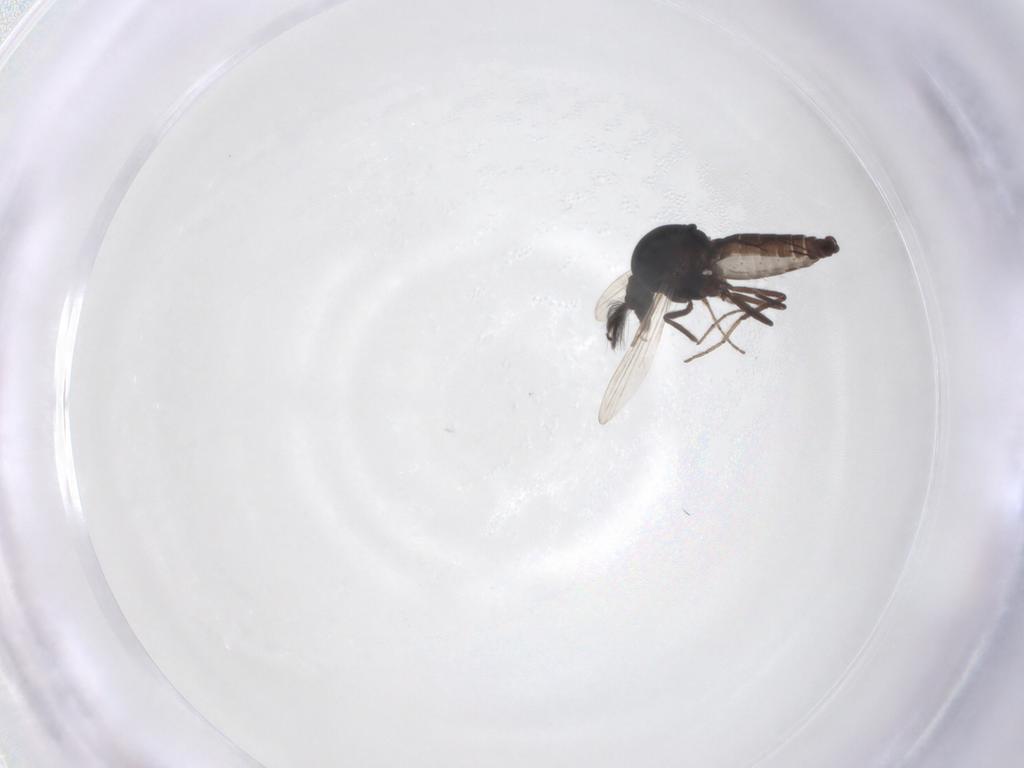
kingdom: Animalia
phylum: Arthropoda
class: Insecta
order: Diptera
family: Ceratopogonidae
